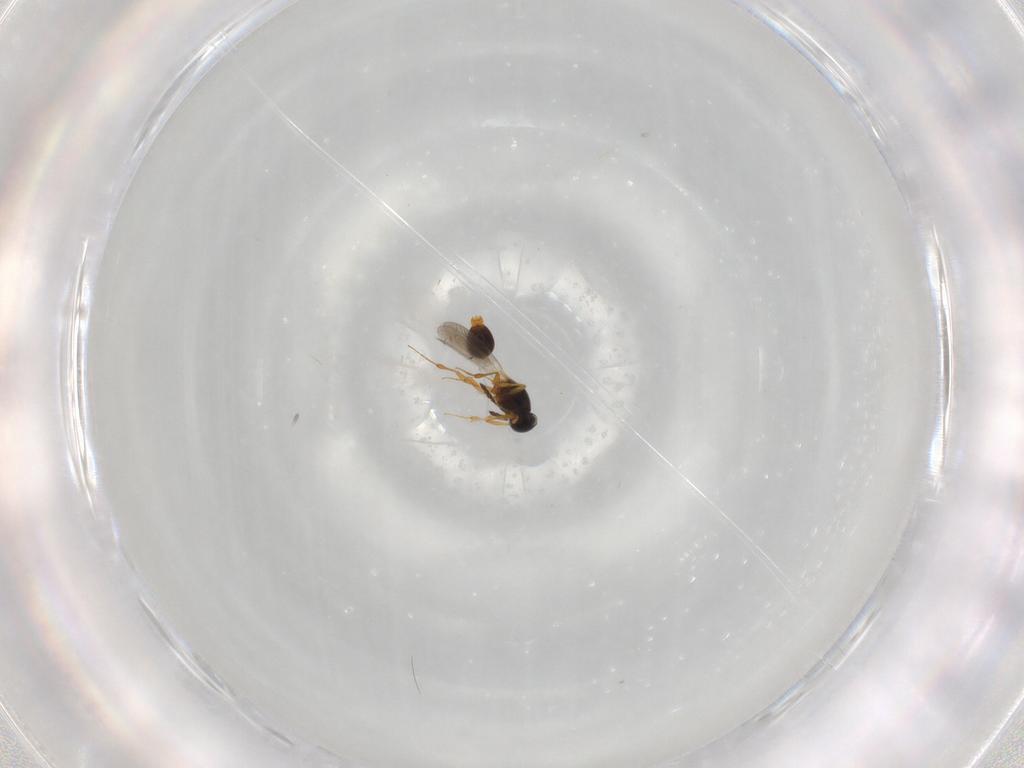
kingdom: Animalia
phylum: Arthropoda
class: Insecta
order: Hymenoptera
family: Platygastridae
